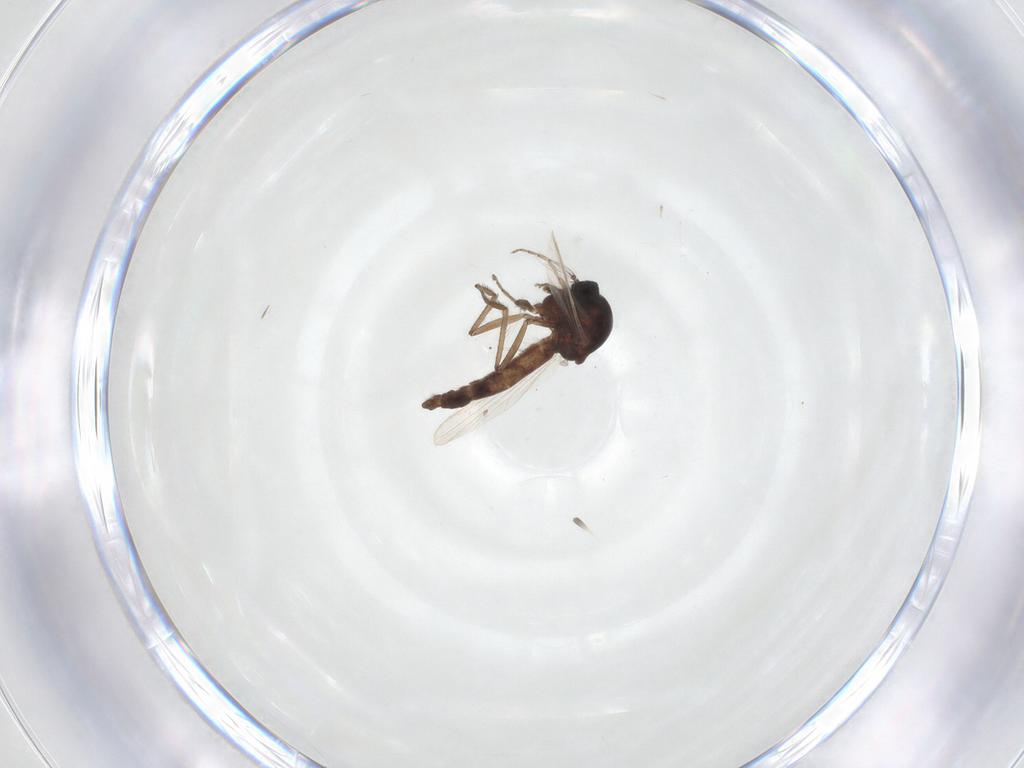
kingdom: Animalia
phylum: Arthropoda
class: Insecta
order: Diptera
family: Ceratopogonidae
